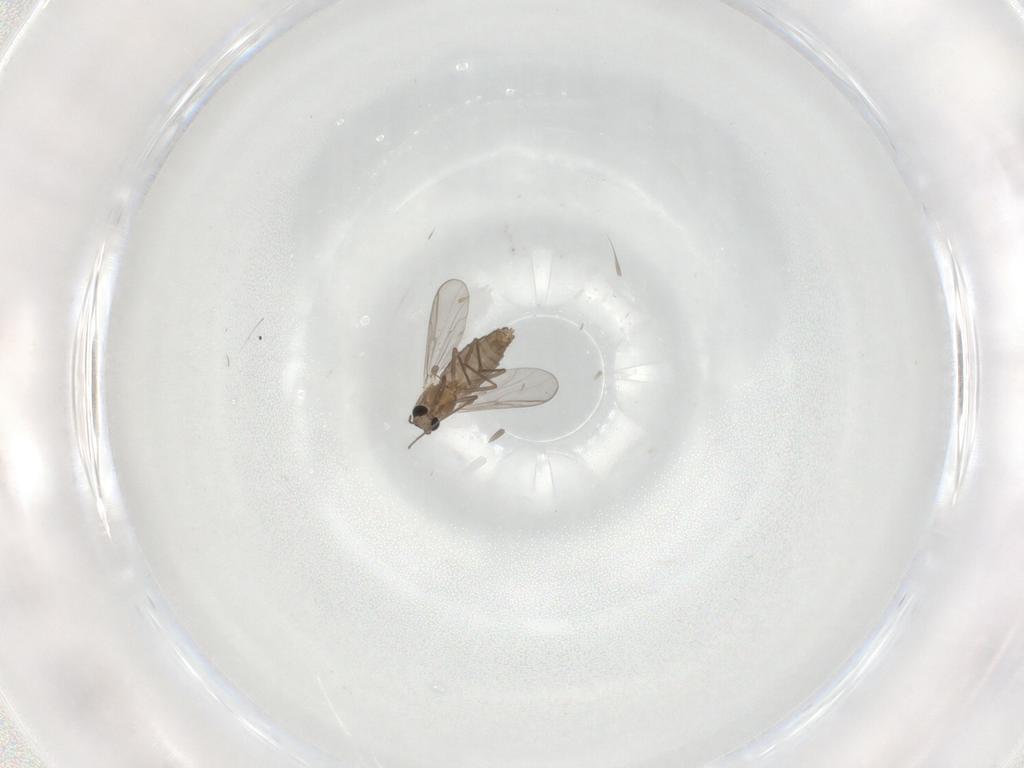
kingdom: Animalia
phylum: Arthropoda
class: Insecta
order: Diptera
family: Chironomidae
